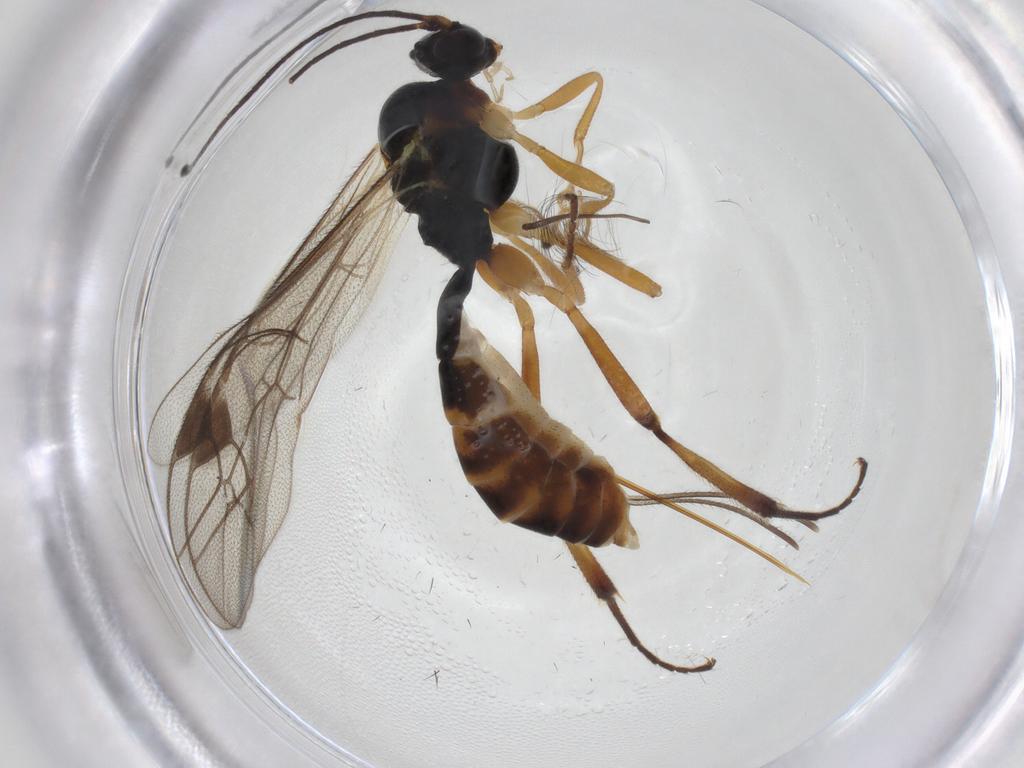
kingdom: Animalia
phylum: Arthropoda
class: Insecta
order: Hymenoptera
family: Ichneumonidae
